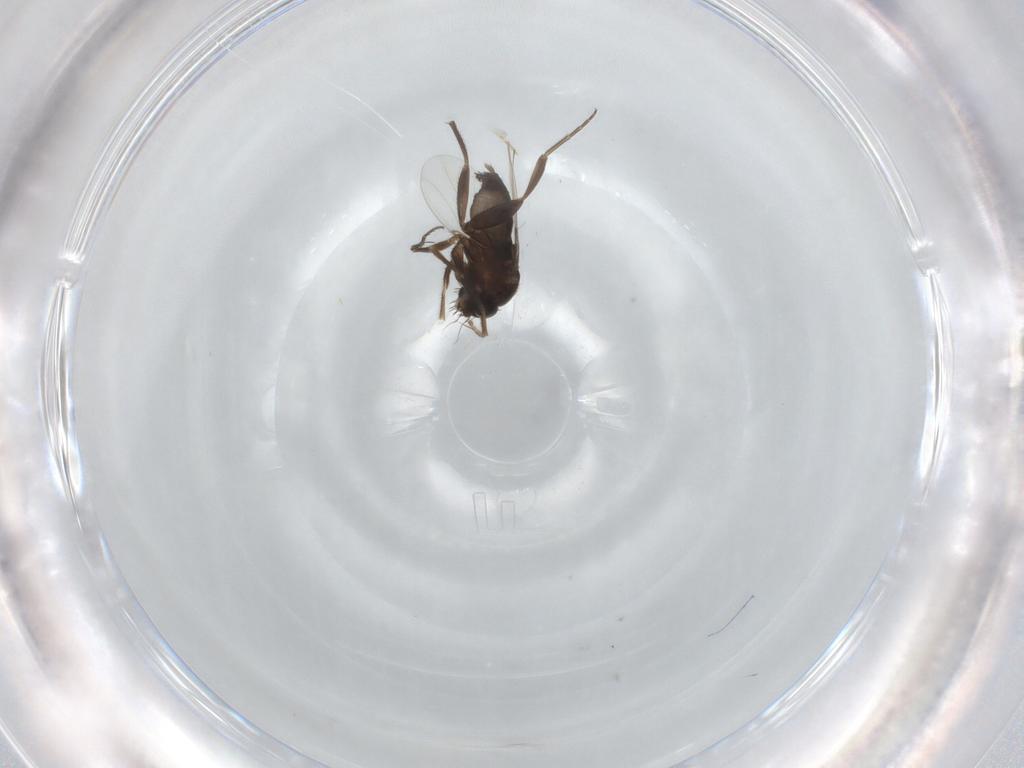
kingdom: Animalia
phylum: Arthropoda
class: Insecta
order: Diptera
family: Phoridae
